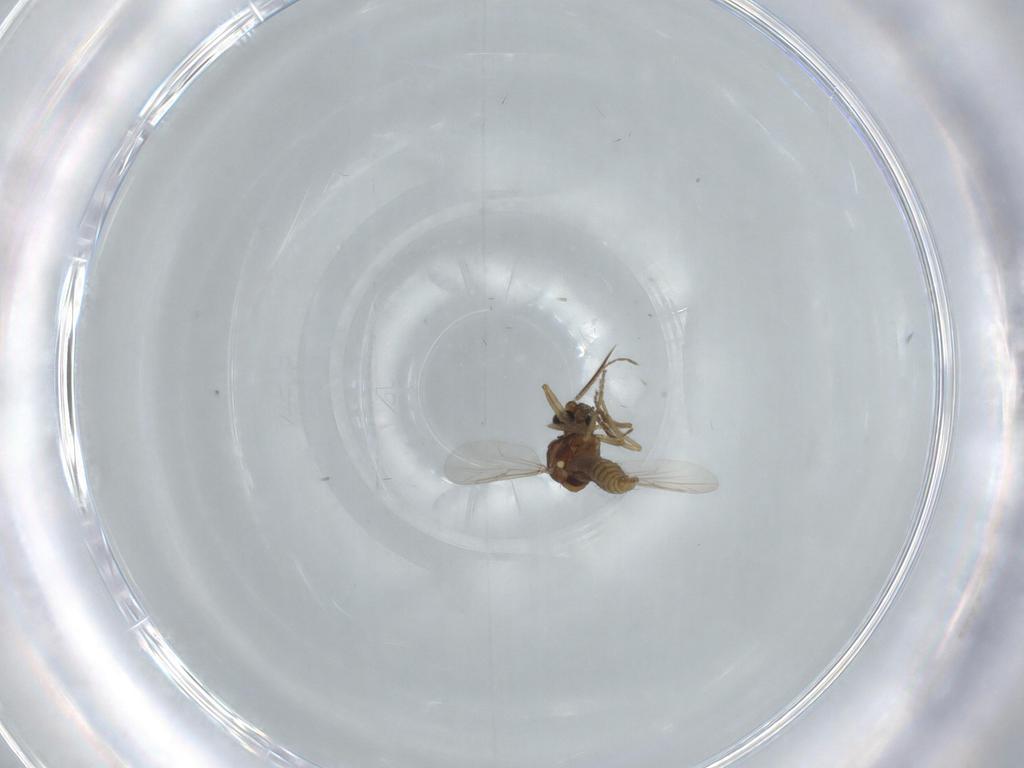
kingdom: Animalia
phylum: Arthropoda
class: Insecta
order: Diptera
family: Ceratopogonidae
